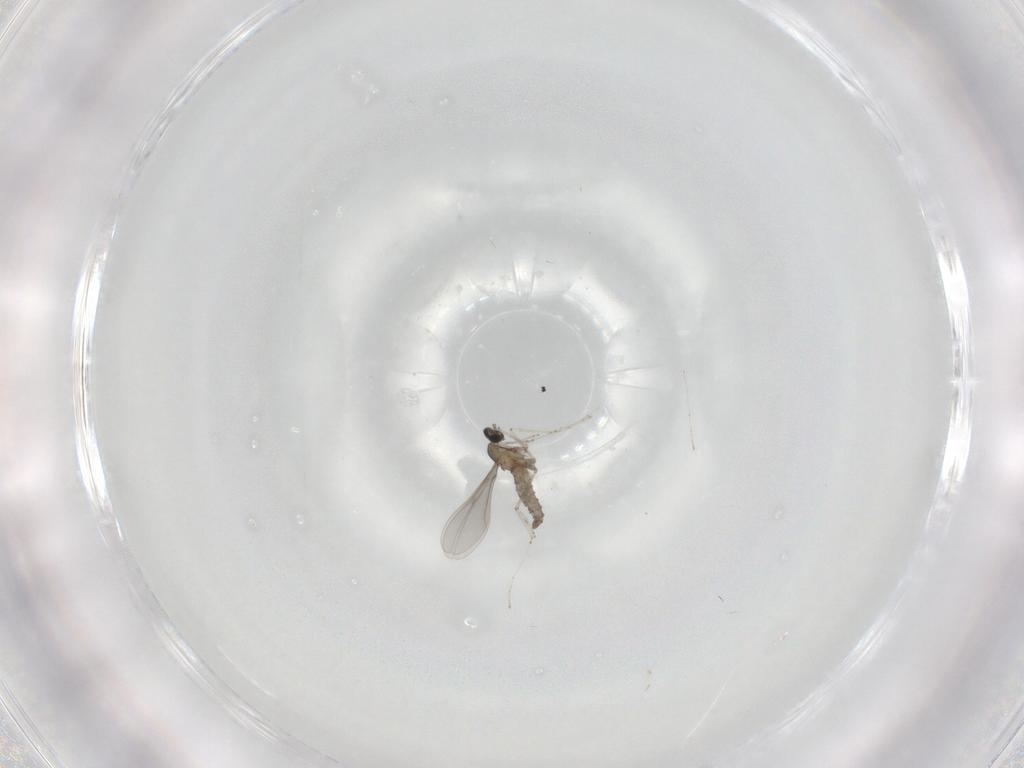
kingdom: Animalia
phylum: Arthropoda
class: Insecta
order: Diptera
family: Cecidomyiidae
